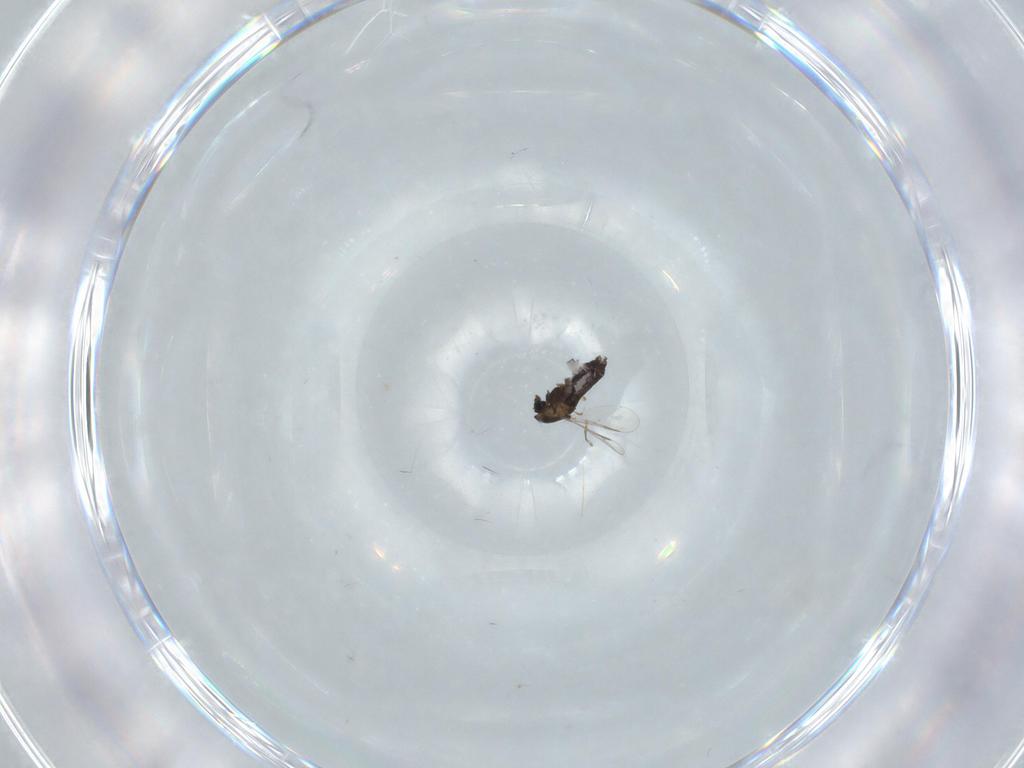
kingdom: Animalia
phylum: Arthropoda
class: Insecta
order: Diptera
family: Chironomidae
